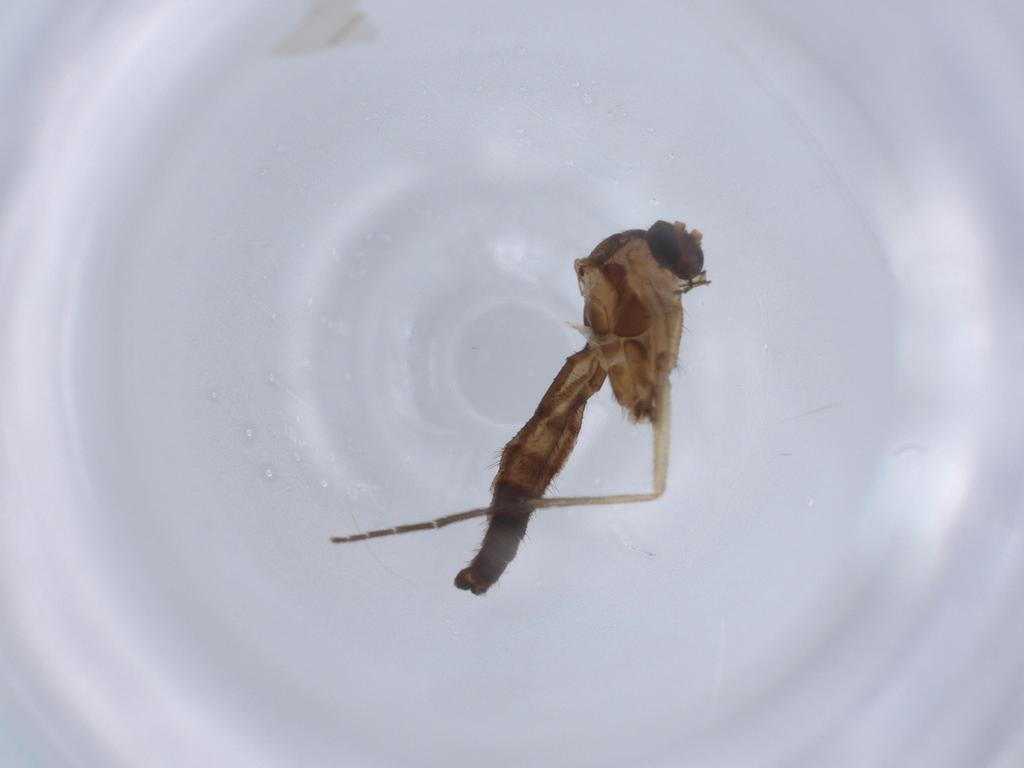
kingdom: Animalia
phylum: Arthropoda
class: Insecta
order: Diptera
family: Keroplatidae
